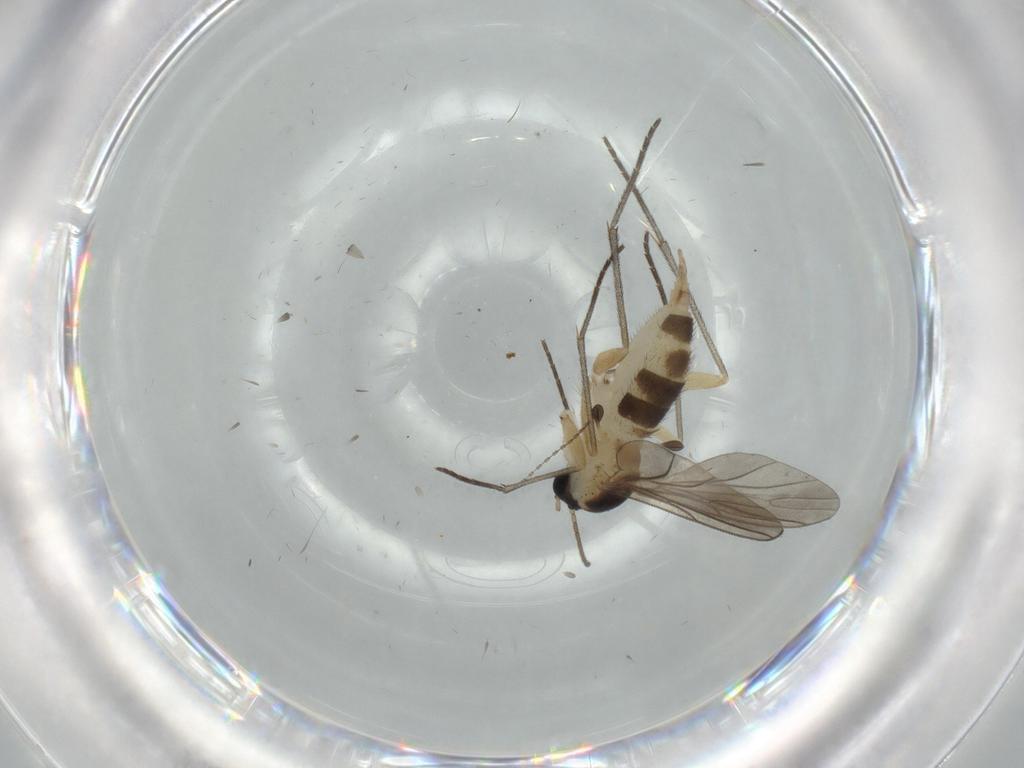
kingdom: Animalia
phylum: Arthropoda
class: Insecta
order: Diptera
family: Sciaridae
